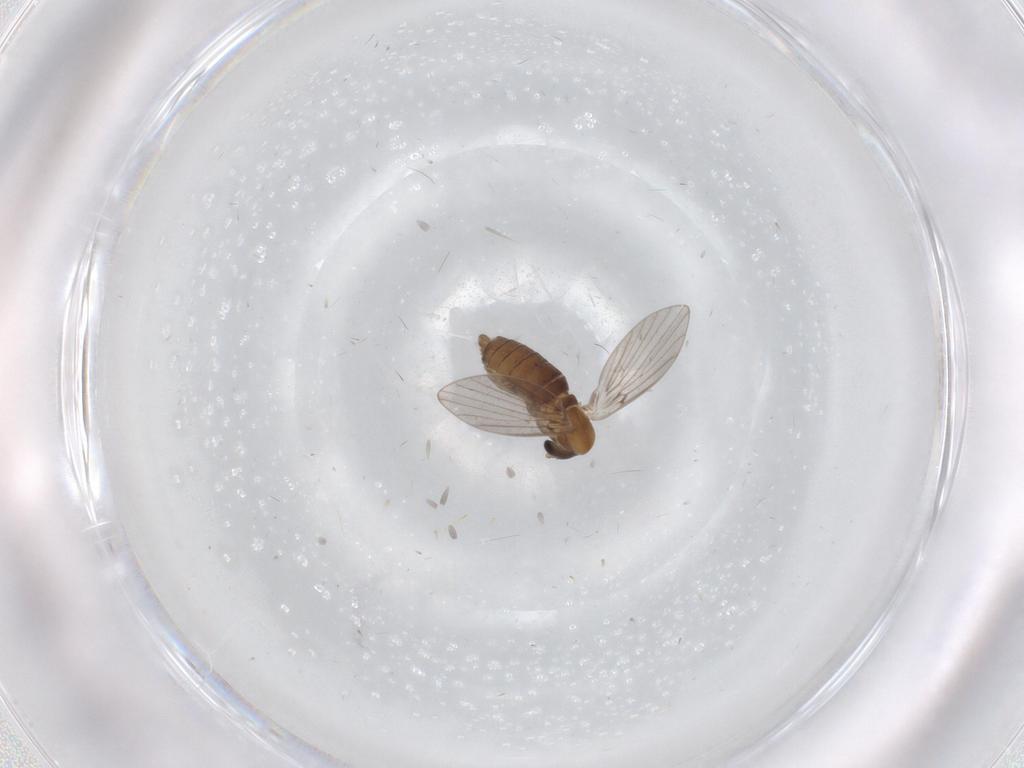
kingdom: Animalia
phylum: Arthropoda
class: Insecta
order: Diptera
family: Psychodidae
